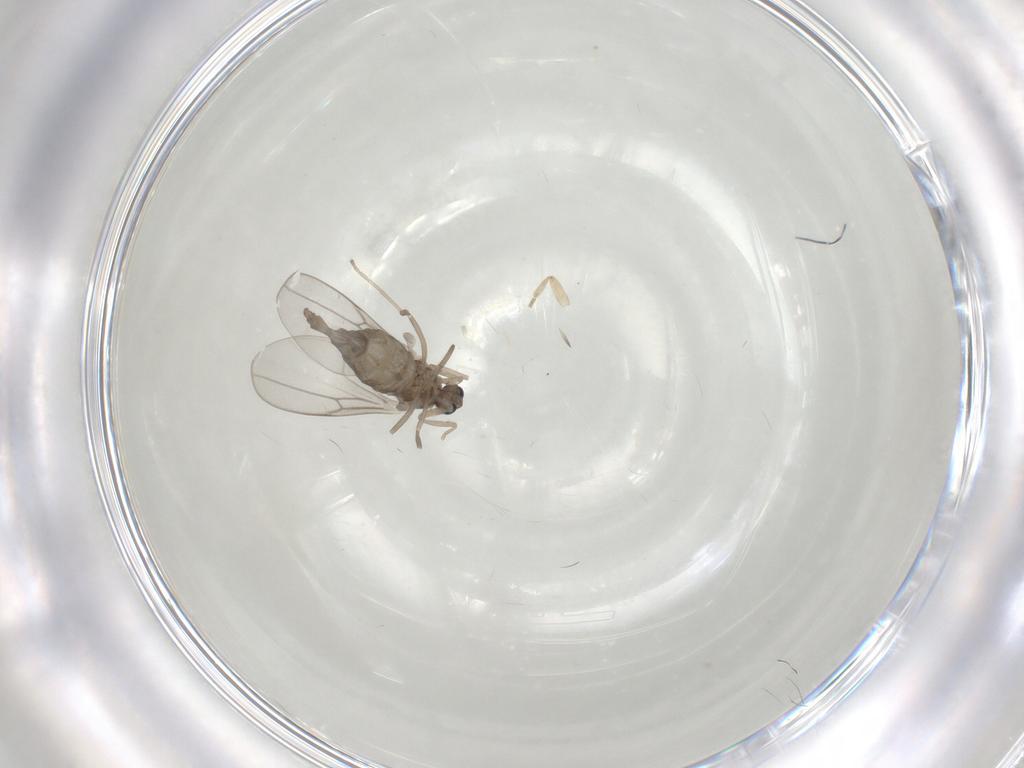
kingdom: Animalia
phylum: Arthropoda
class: Insecta
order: Diptera
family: Cecidomyiidae
